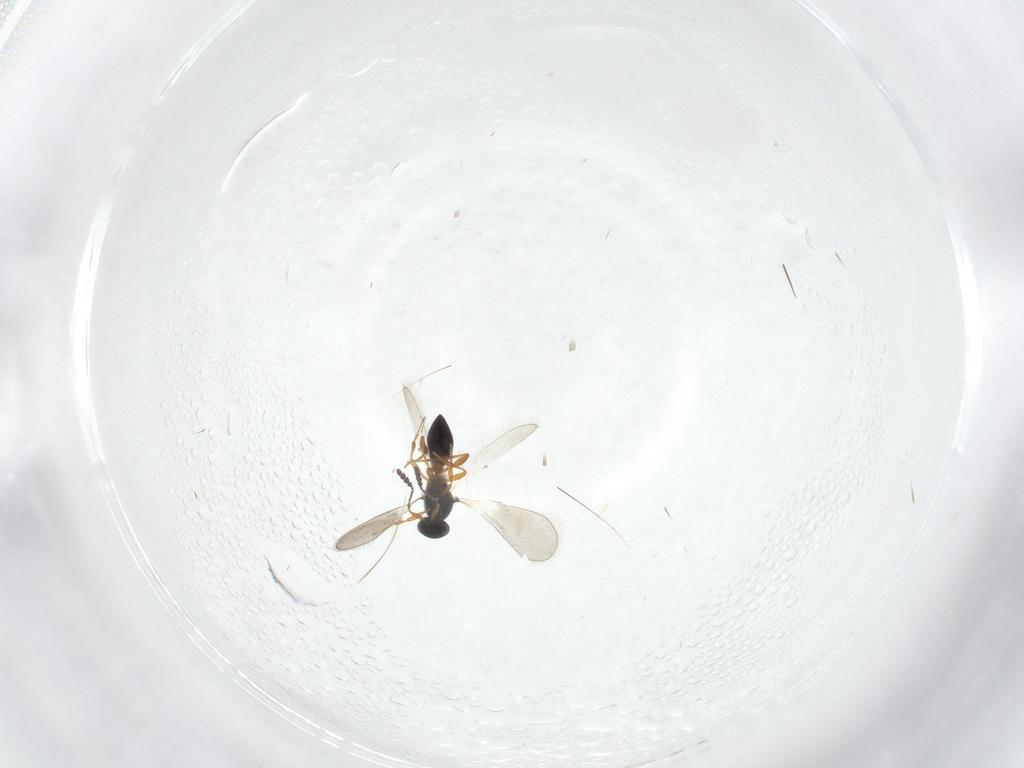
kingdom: Animalia
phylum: Arthropoda
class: Insecta
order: Hymenoptera
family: Platygastridae
